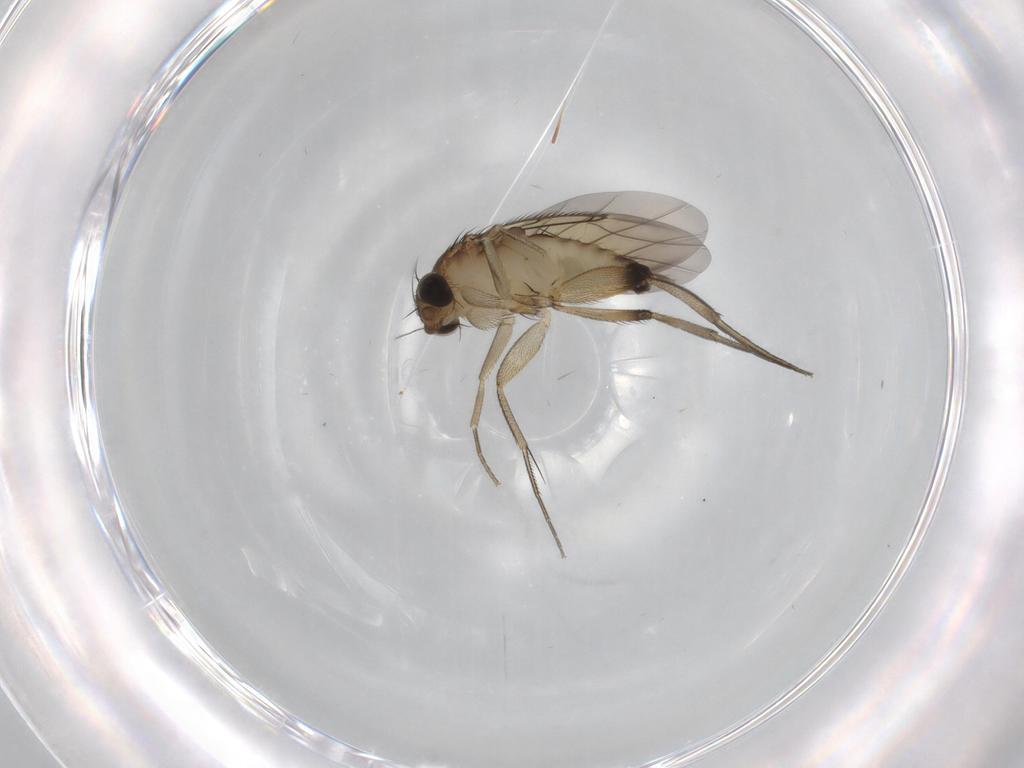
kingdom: Animalia
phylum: Arthropoda
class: Insecta
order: Diptera
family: Phoridae
